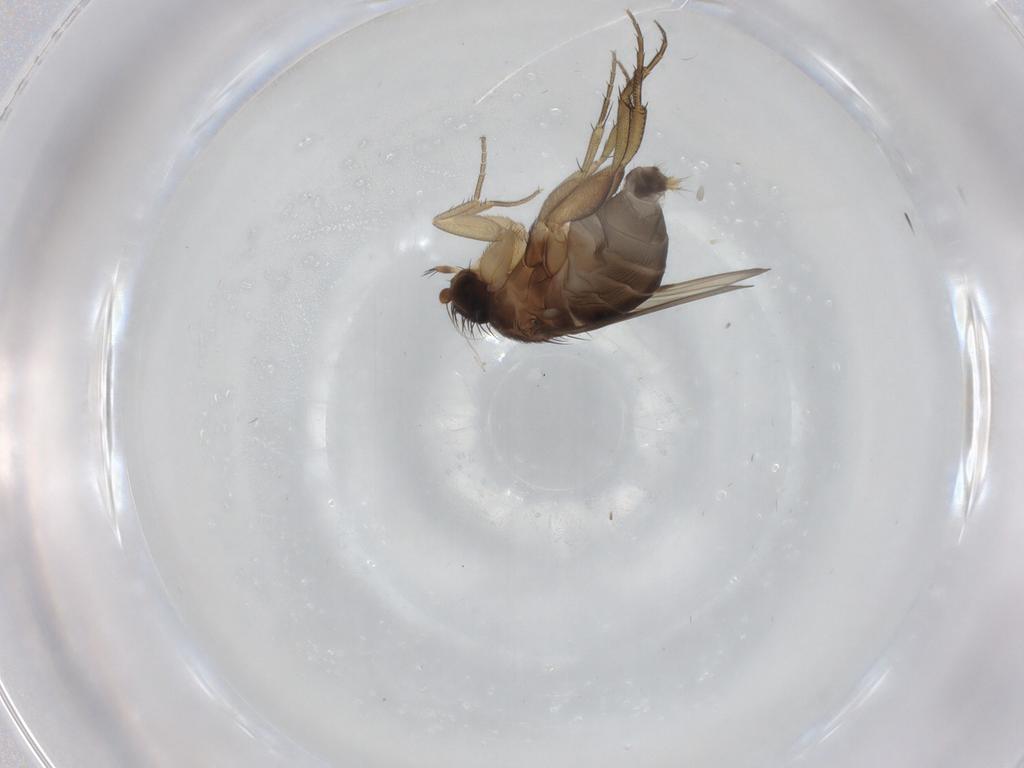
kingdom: Animalia
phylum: Arthropoda
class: Insecta
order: Diptera
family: Phoridae
